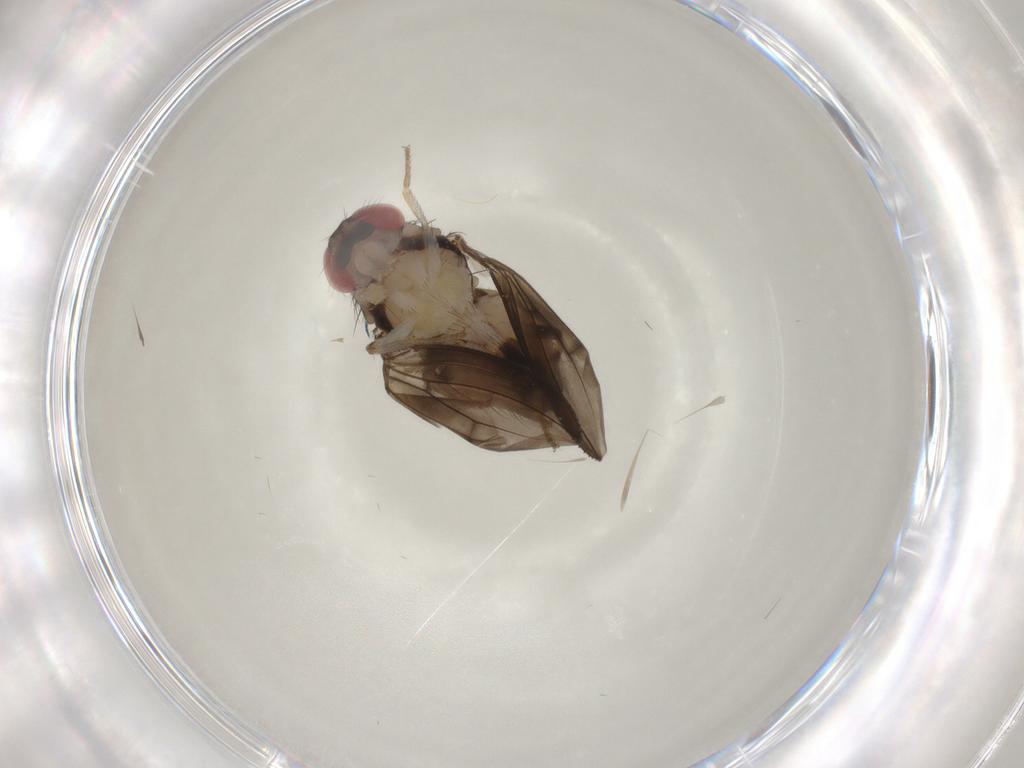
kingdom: Animalia
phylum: Arthropoda
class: Insecta
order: Diptera
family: Drosophilidae
